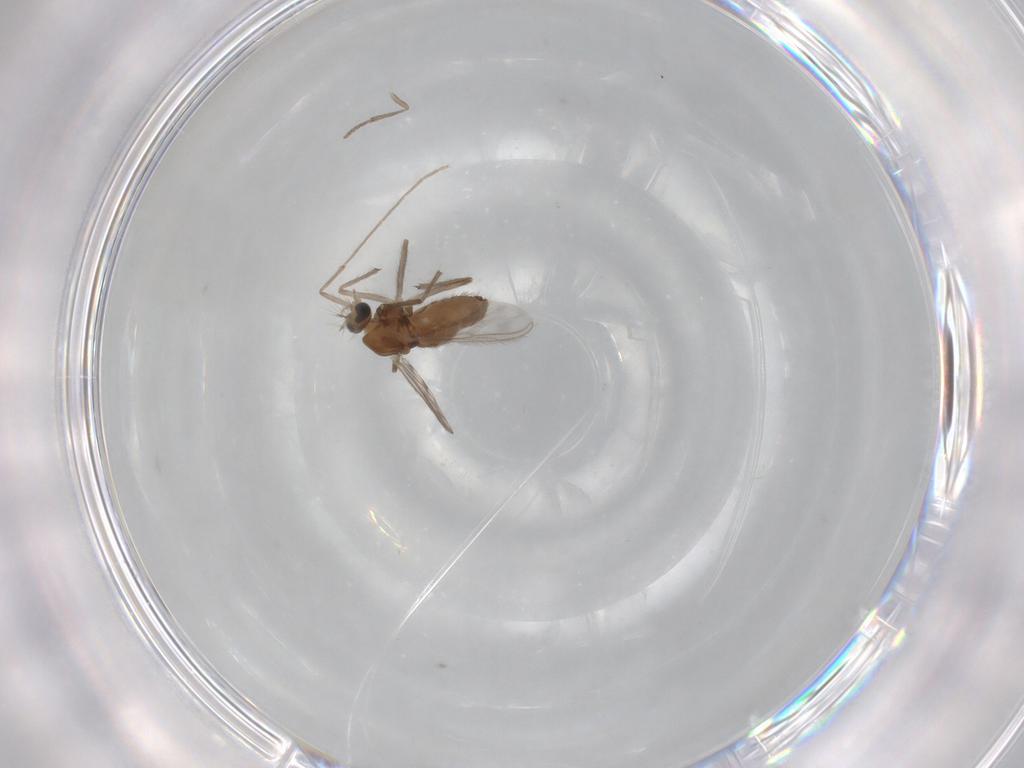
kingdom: Animalia
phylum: Arthropoda
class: Insecta
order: Diptera
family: Chironomidae
